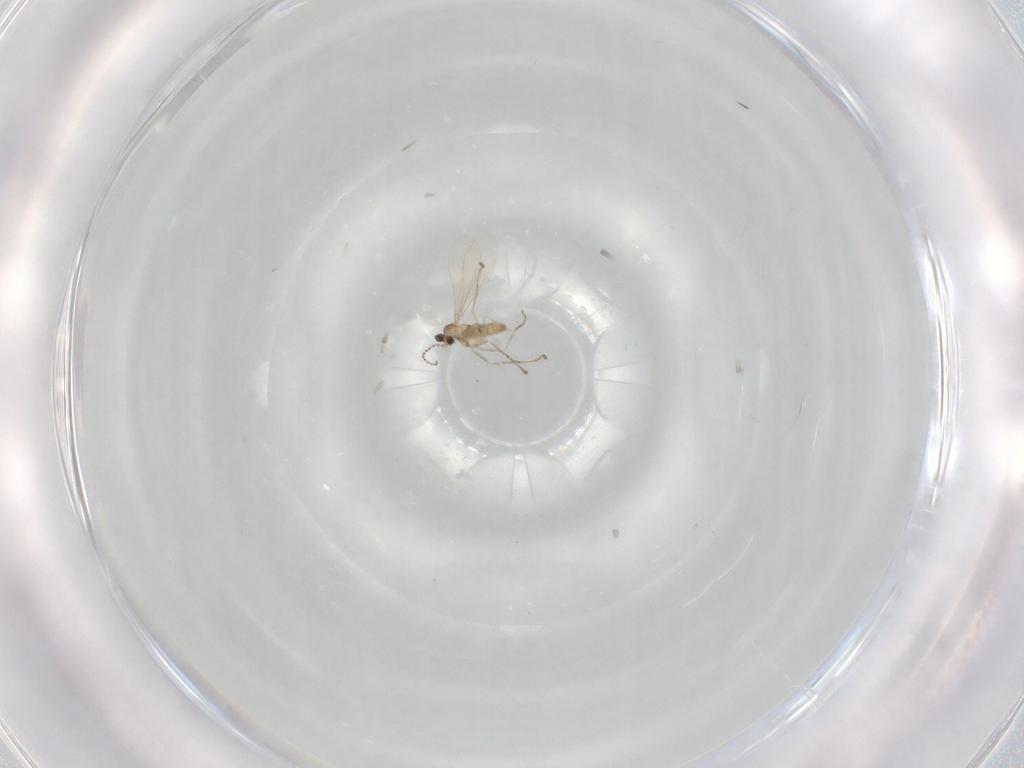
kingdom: Animalia
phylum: Arthropoda
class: Insecta
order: Diptera
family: Cecidomyiidae
